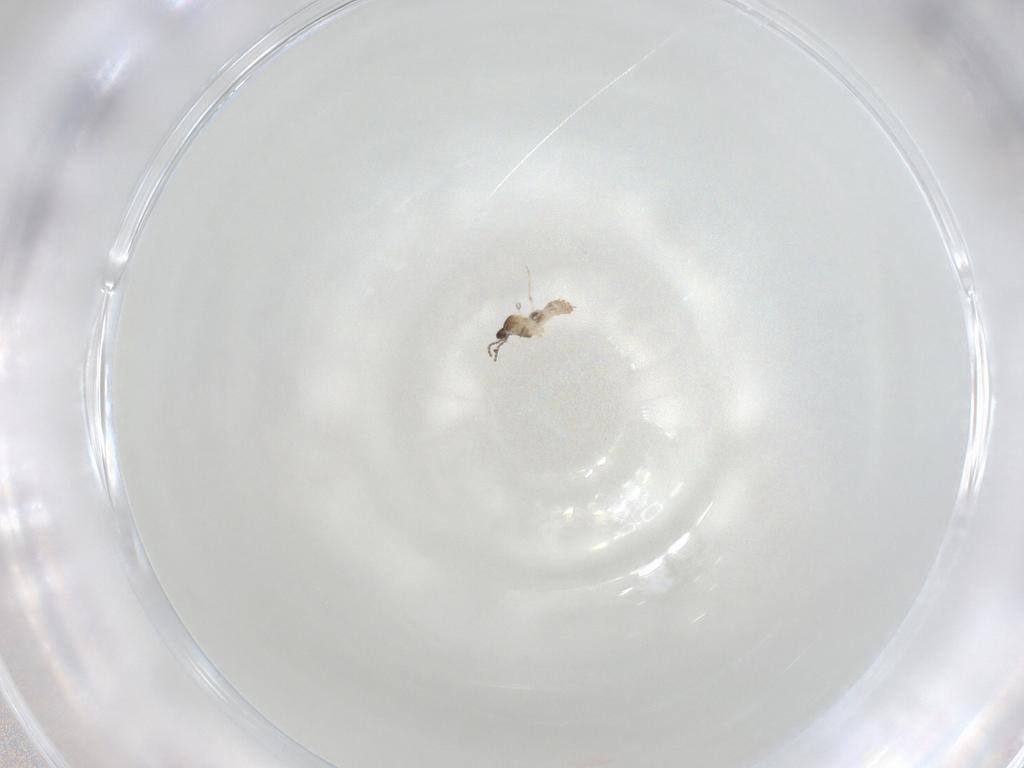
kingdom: Animalia
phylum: Arthropoda
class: Insecta
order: Diptera
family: Cecidomyiidae
